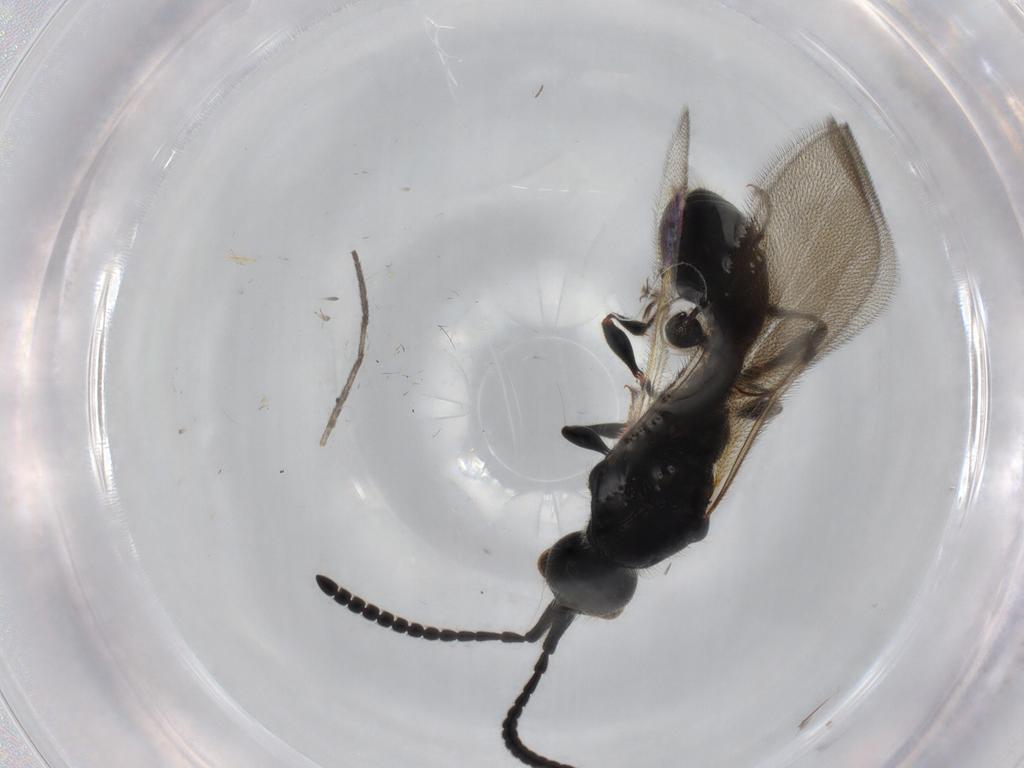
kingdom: Animalia
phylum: Arthropoda
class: Insecta
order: Hymenoptera
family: Diapriidae
